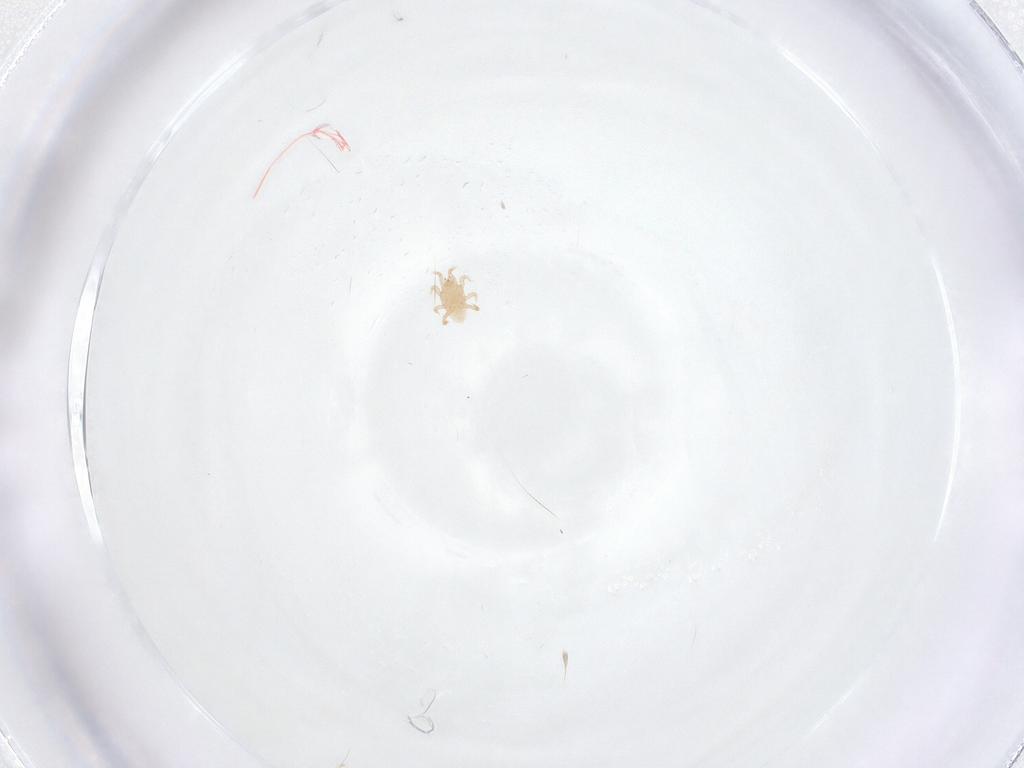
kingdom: Animalia
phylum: Arthropoda
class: Arachnida
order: Mesostigmata
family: Melicharidae
